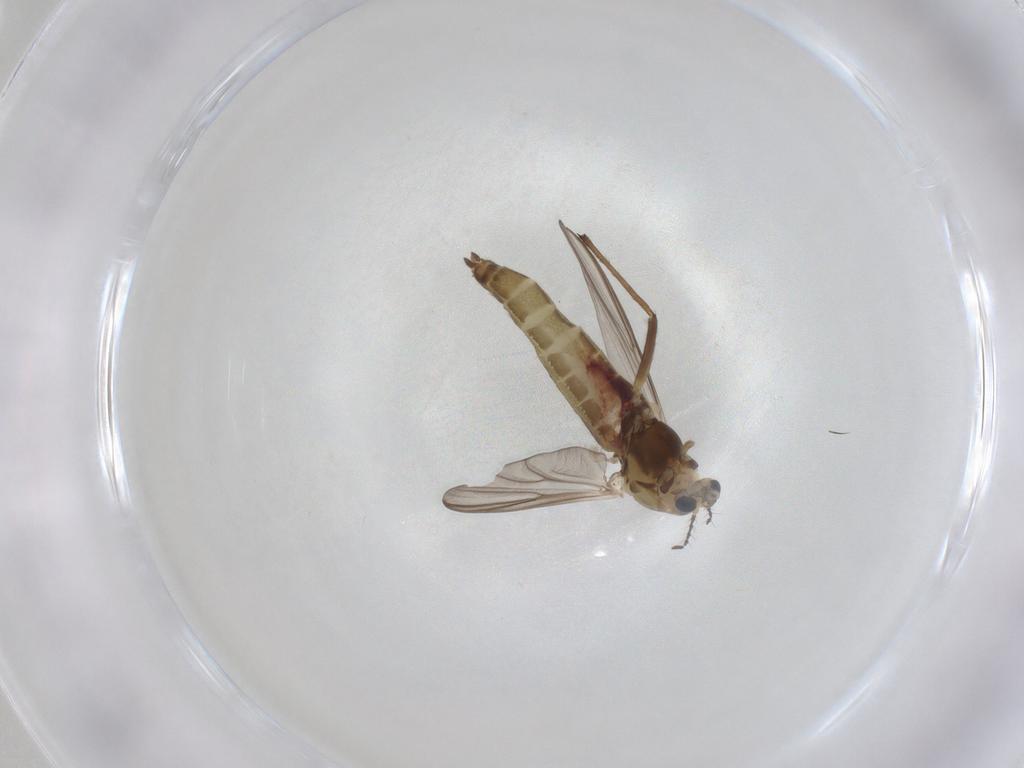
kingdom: Animalia
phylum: Arthropoda
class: Insecta
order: Diptera
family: Chironomidae
